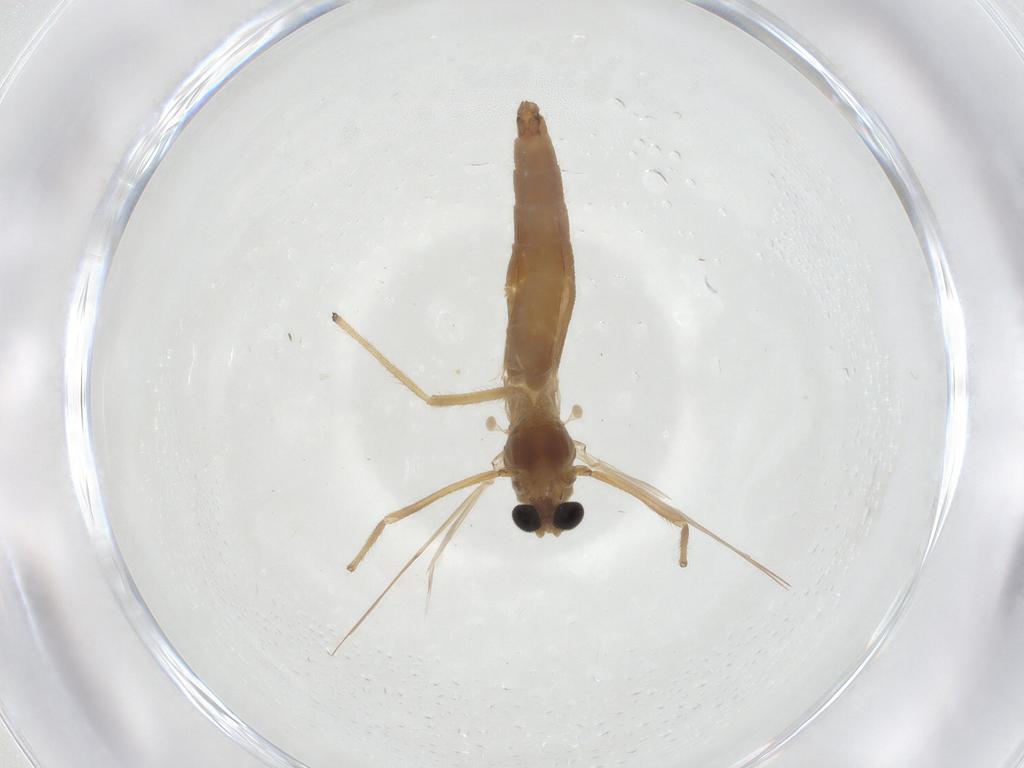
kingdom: Animalia
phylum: Arthropoda
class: Insecta
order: Diptera
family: Chironomidae
